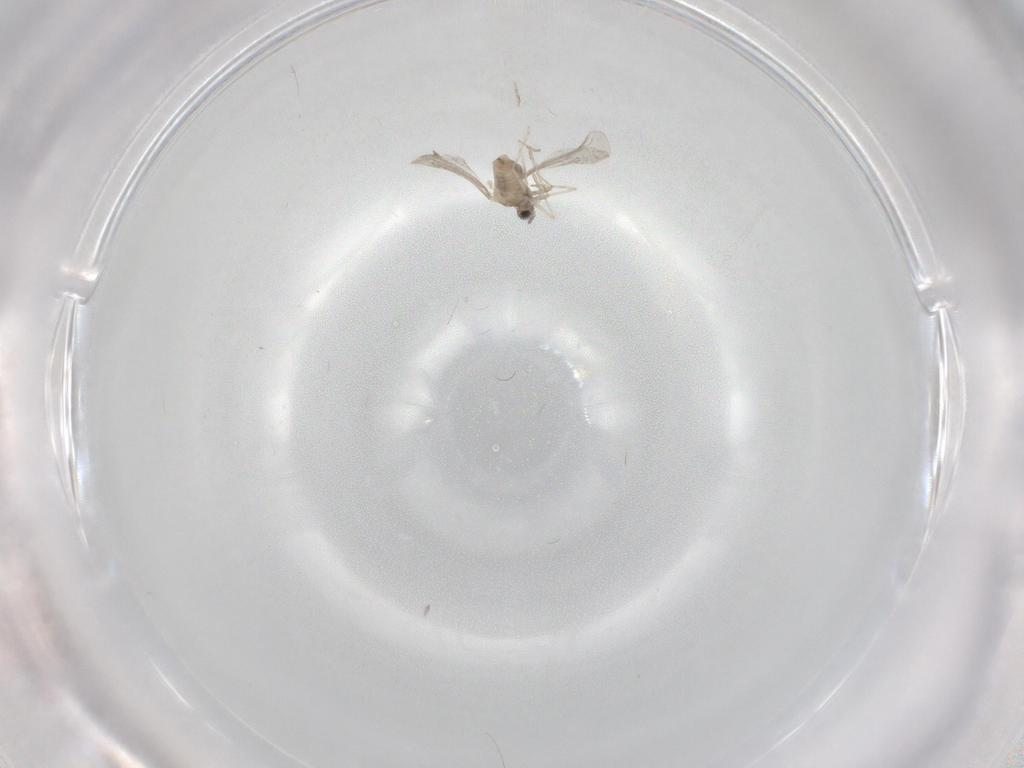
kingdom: Animalia
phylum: Arthropoda
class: Insecta
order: Diptera
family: Cecidomyiidae
